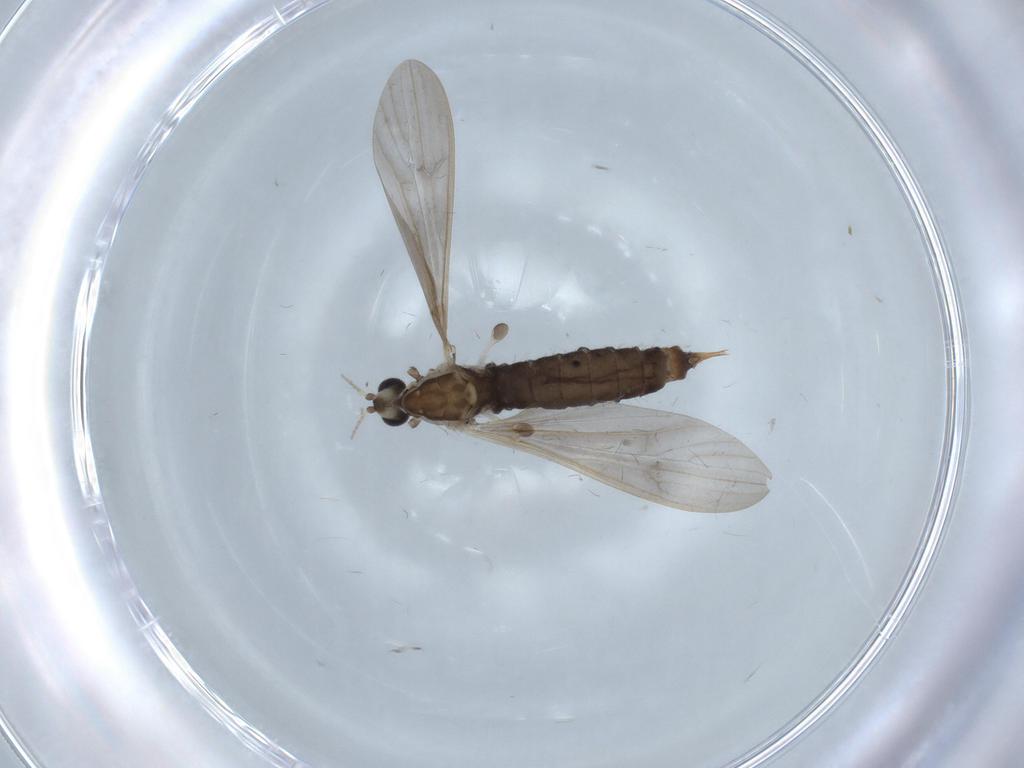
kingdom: Animalia
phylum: Arthropoda
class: Insecta
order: Diptera
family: Limoniidae
